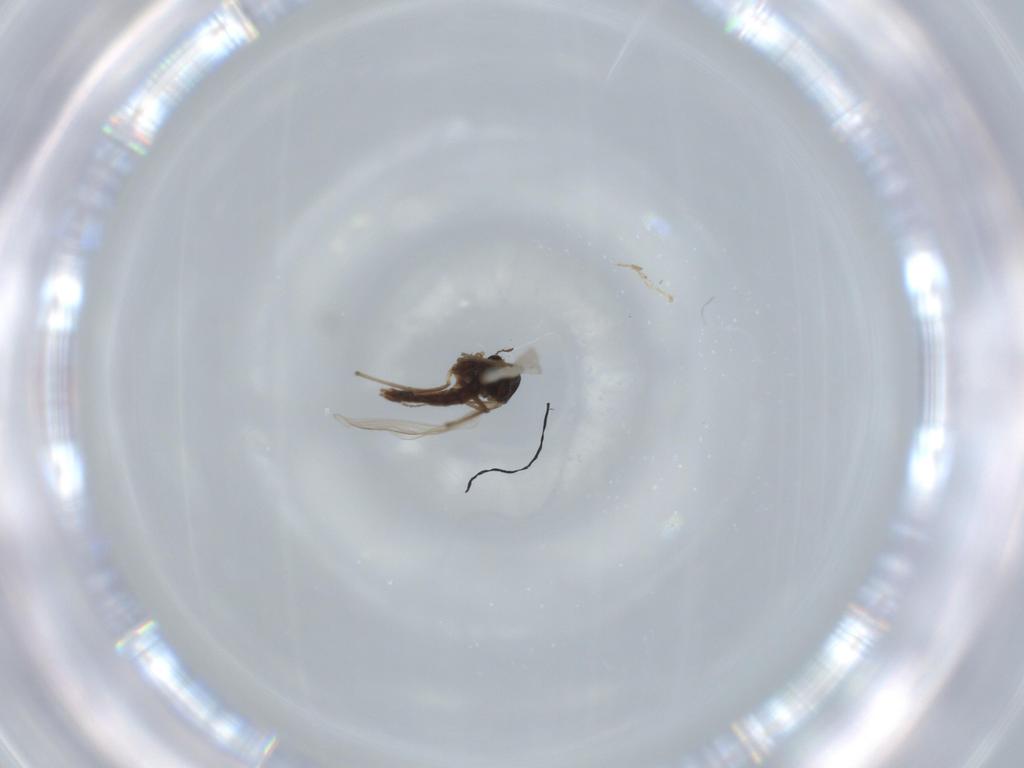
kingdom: Animalia
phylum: Arthropoda
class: Insecta
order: Diptera
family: Chironomidae
